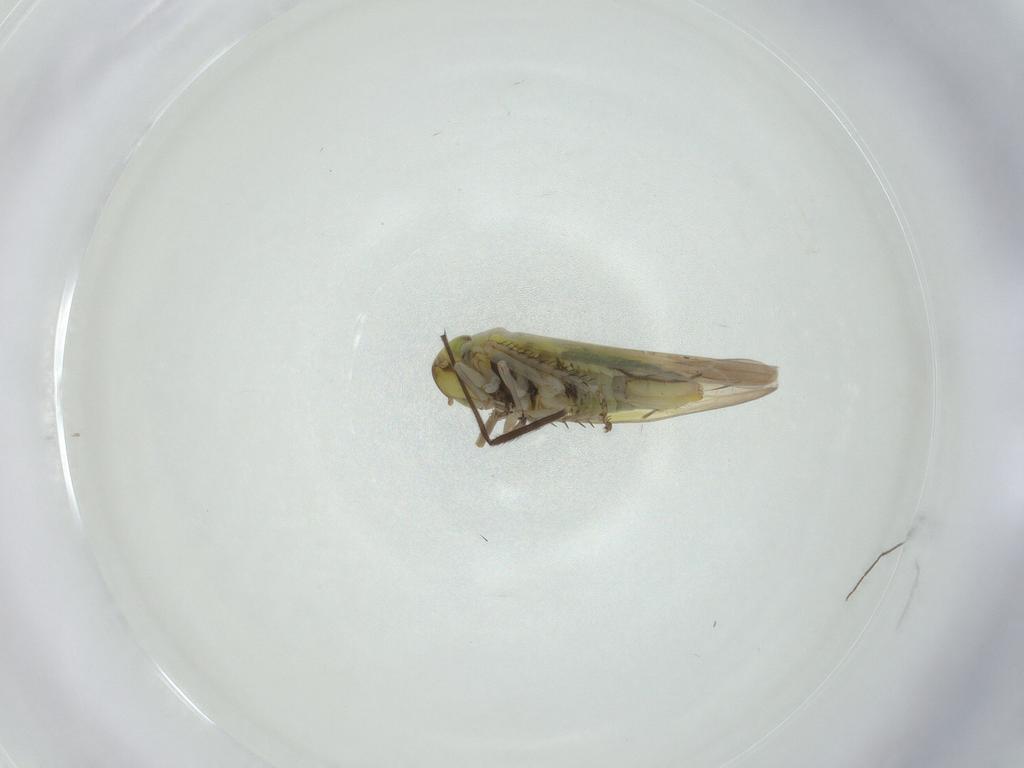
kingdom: Animalia
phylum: Arthropoda
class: Insecta
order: Hemiptera
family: Cicadellidae
